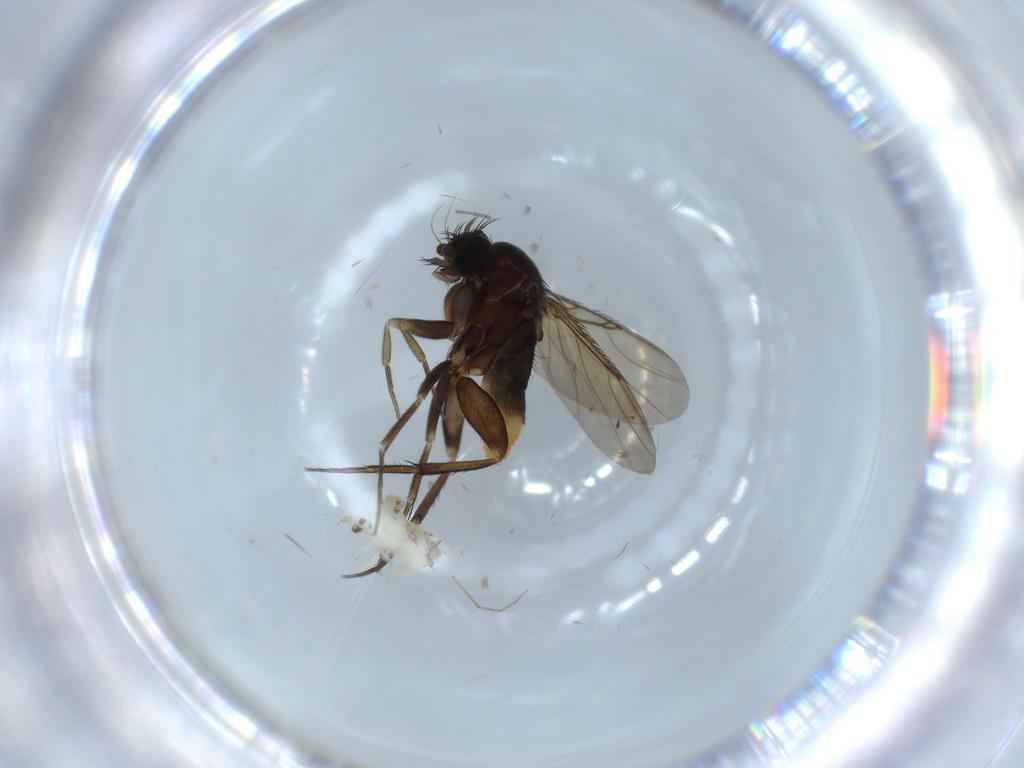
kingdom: Animalia
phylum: Arthropoda
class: Insecta
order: Diptera
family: Phoridae
